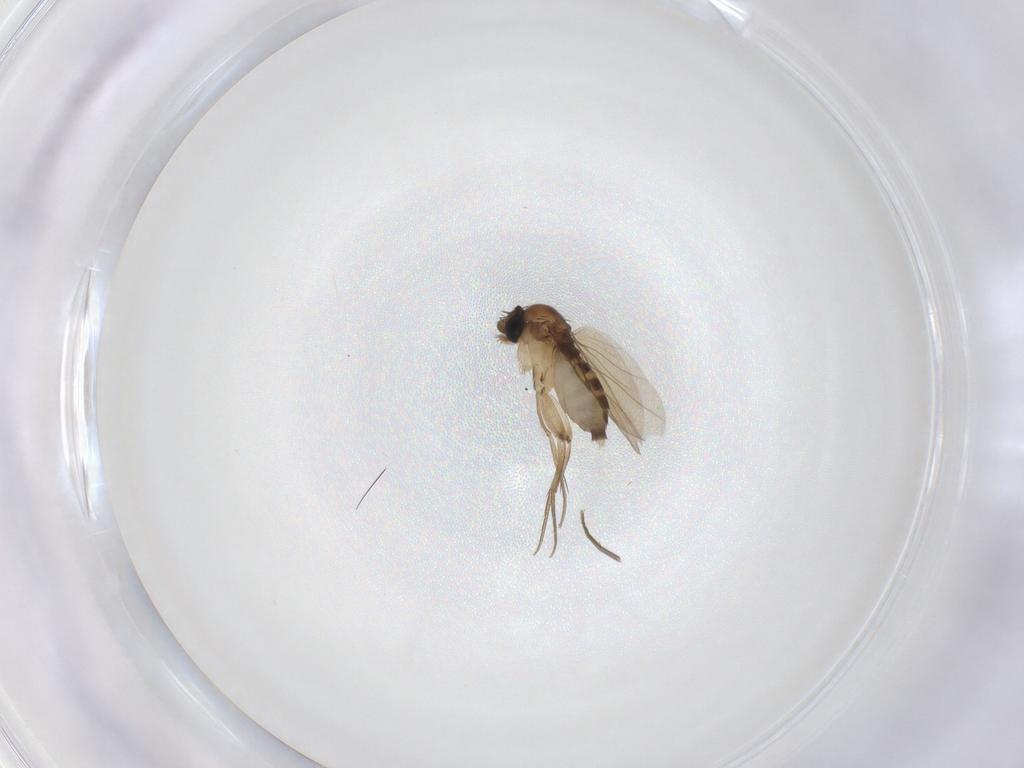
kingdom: Animalia
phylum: Arthropoda
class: Insecta
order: Diptera
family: Phoridae
